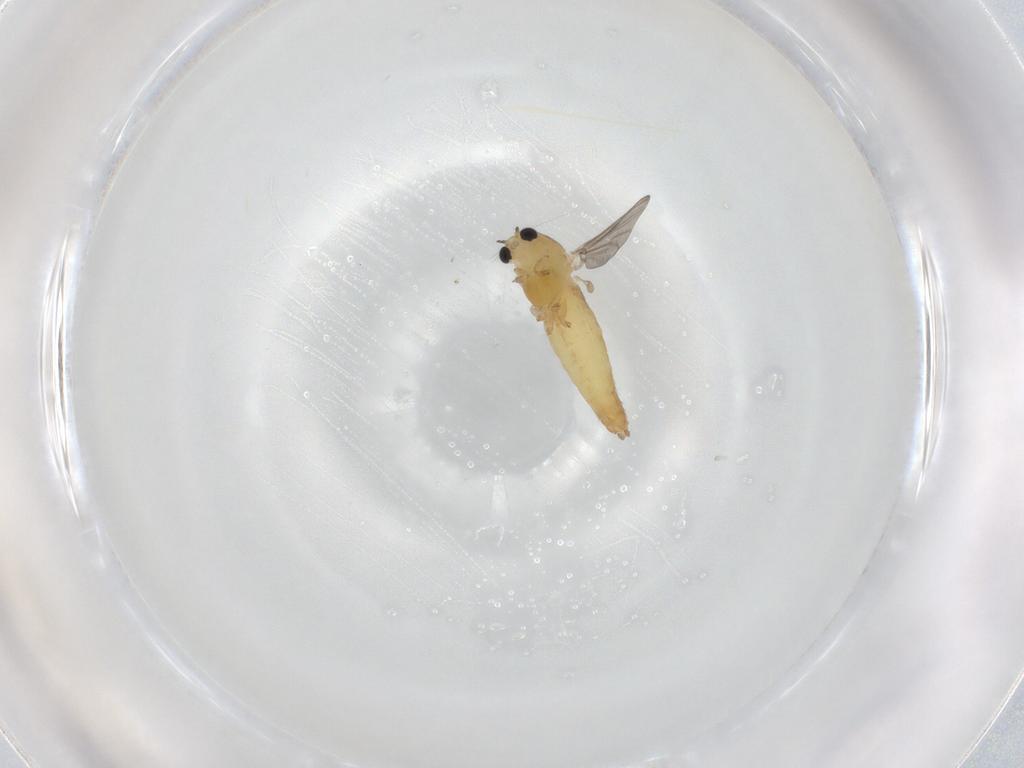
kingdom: Animalia
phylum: Arthropoda
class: Insecta
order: Diptera
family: Chironomidae
